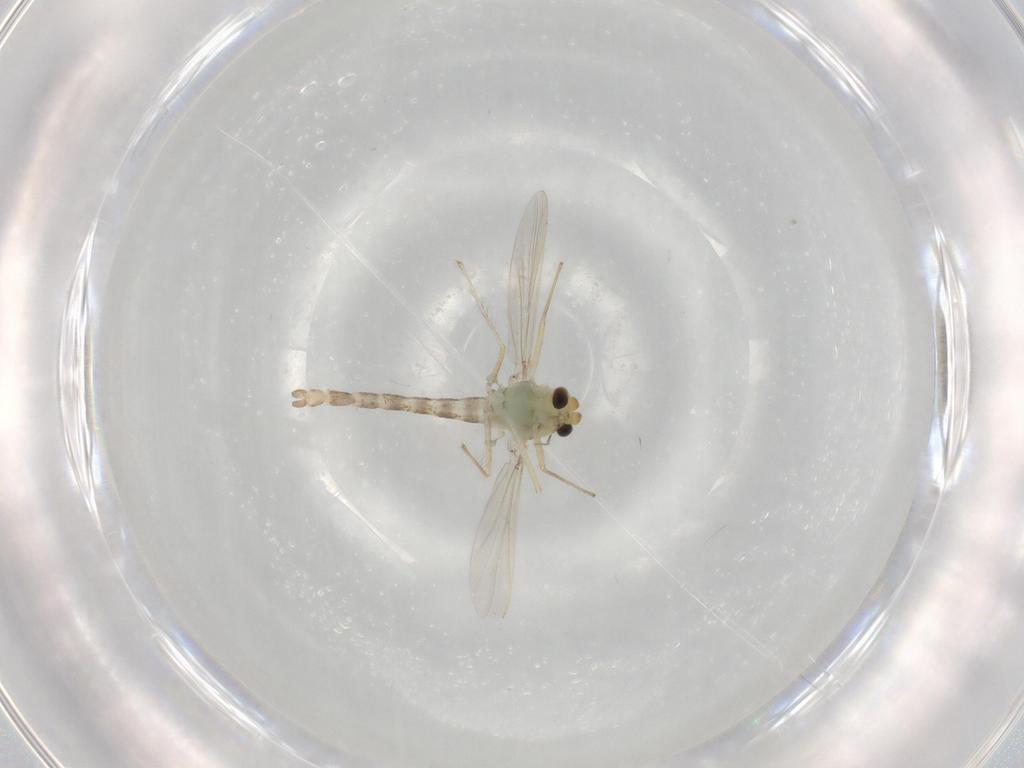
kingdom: Animalia
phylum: Arthropoda
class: Insecta
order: Diptera
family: Chironomidae
